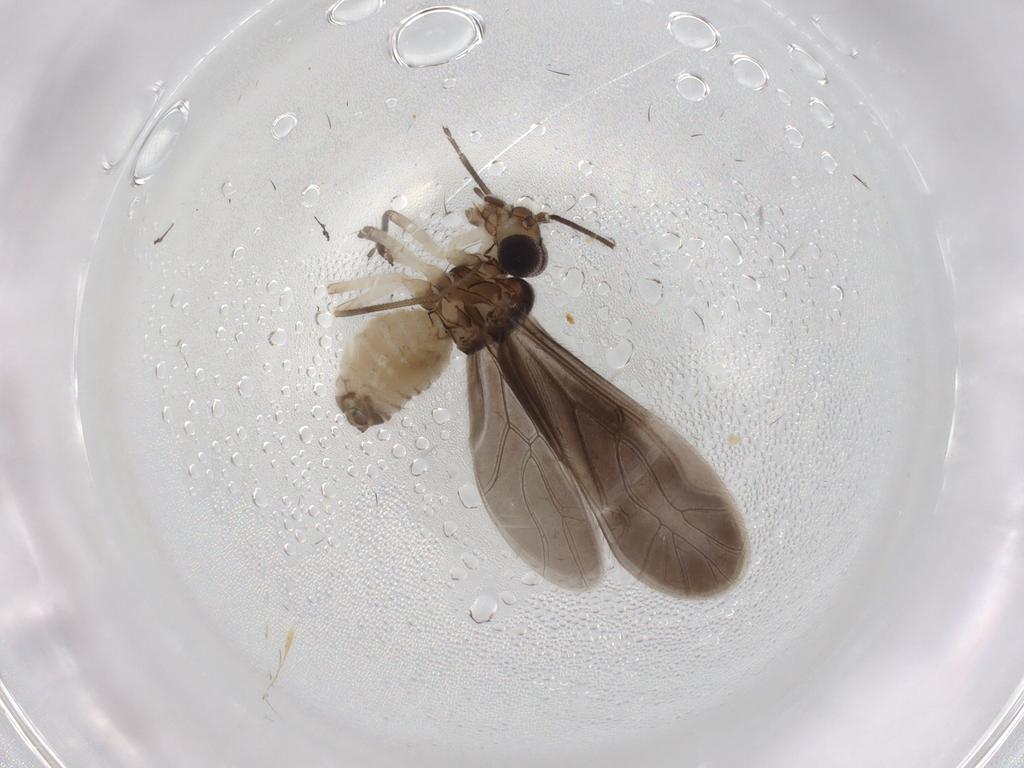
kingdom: Animalia
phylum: Arthropoda
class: Insecta
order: Psocodea
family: Caeciliusidae
